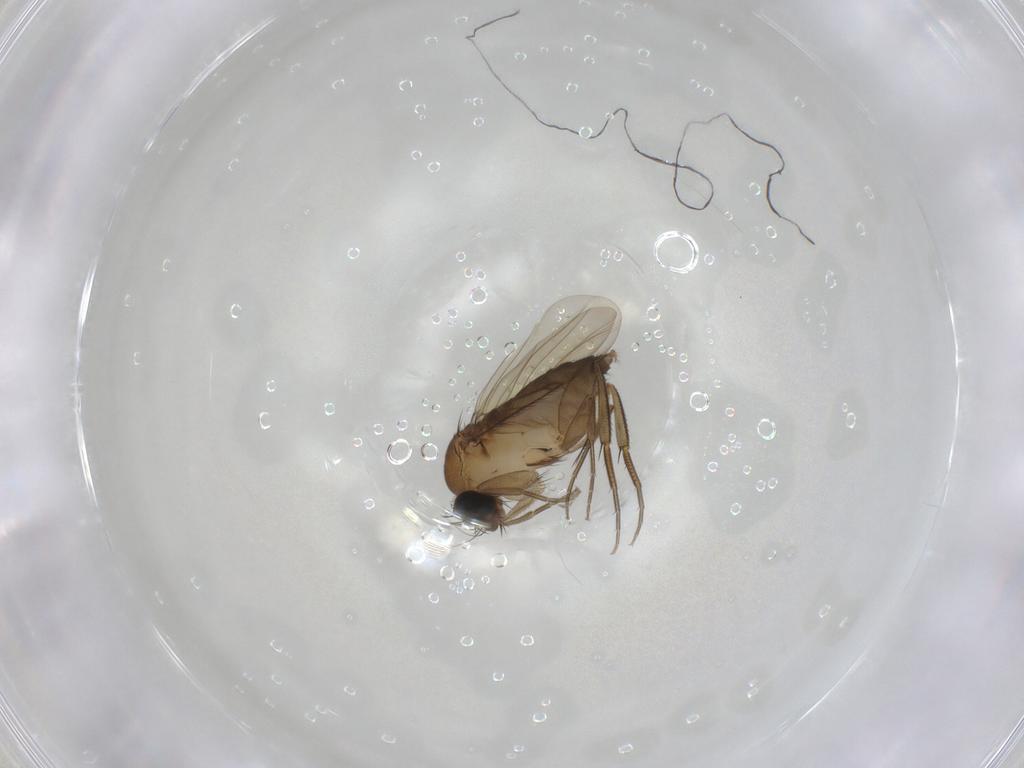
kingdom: Animalia
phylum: Arthropoda
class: Insecta
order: Diptera
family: Phoridae
